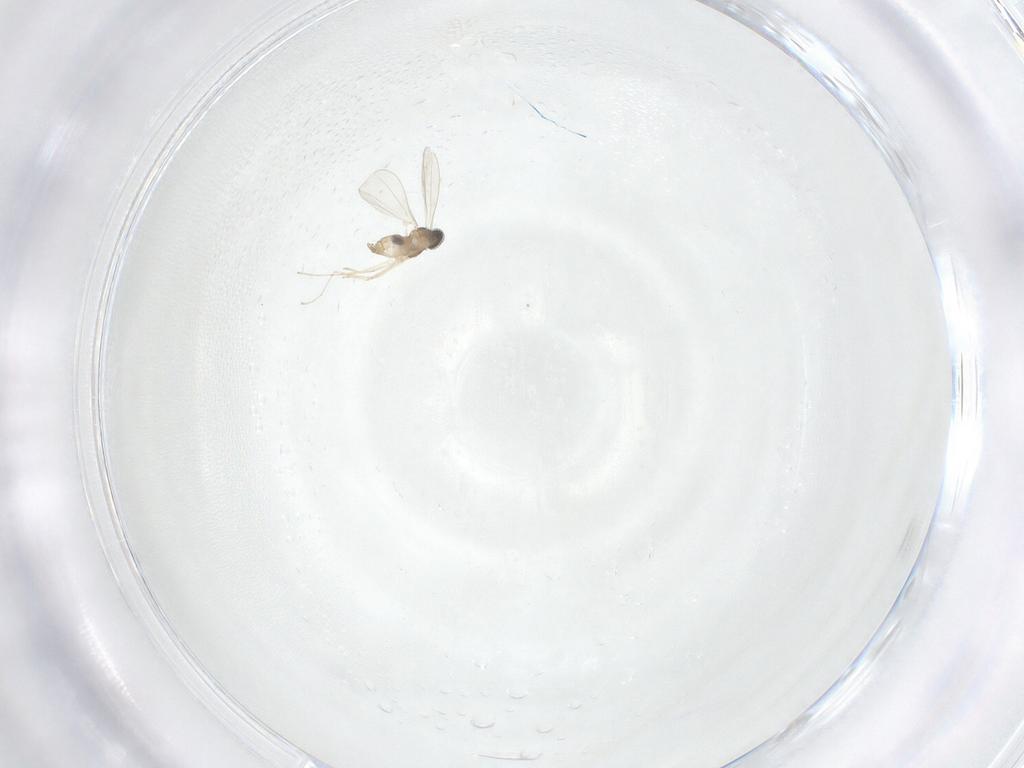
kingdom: Animalia
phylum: Arthropoda
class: Insecta
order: Diptera
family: Cecidomyiidae
